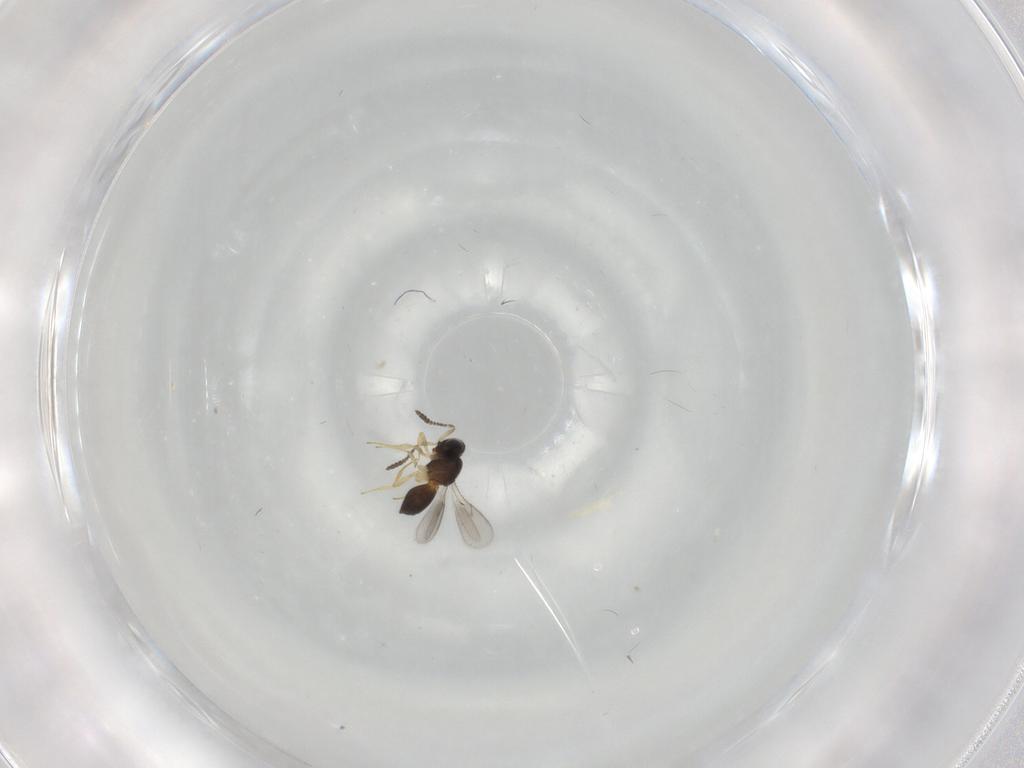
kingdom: Animalia
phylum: Arthropoda
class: Insecta
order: Hymenoptera
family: Scelionidae
